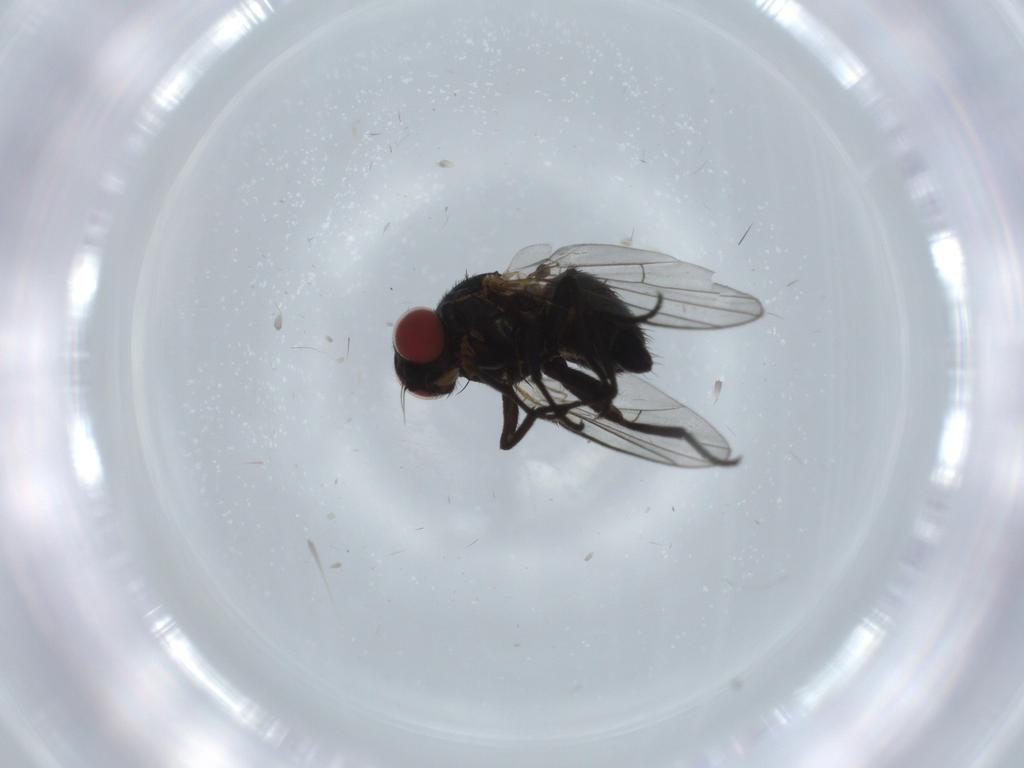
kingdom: Animalia
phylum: Arthropoda
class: Insecta
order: Diptera
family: Agromyzidae
